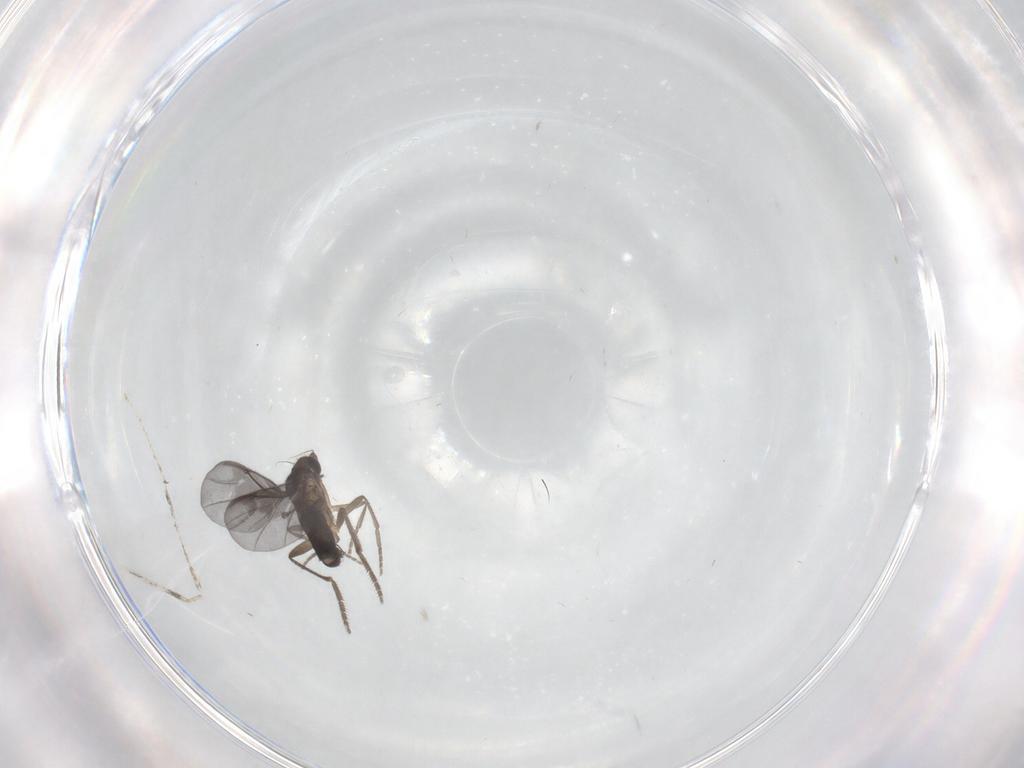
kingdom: Animalia
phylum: Arthropoda
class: Insecta
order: Diptera
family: Phoridae
